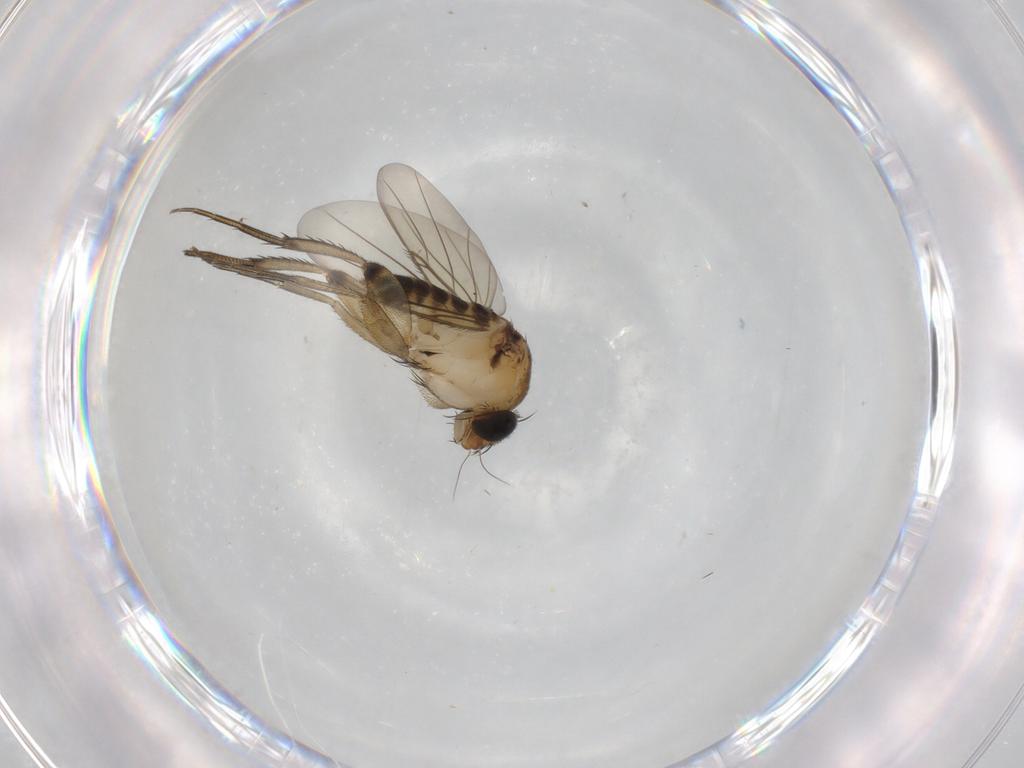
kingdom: Animalia
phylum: Arthropoda
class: Insecta
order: Diptera
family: Phoridae
